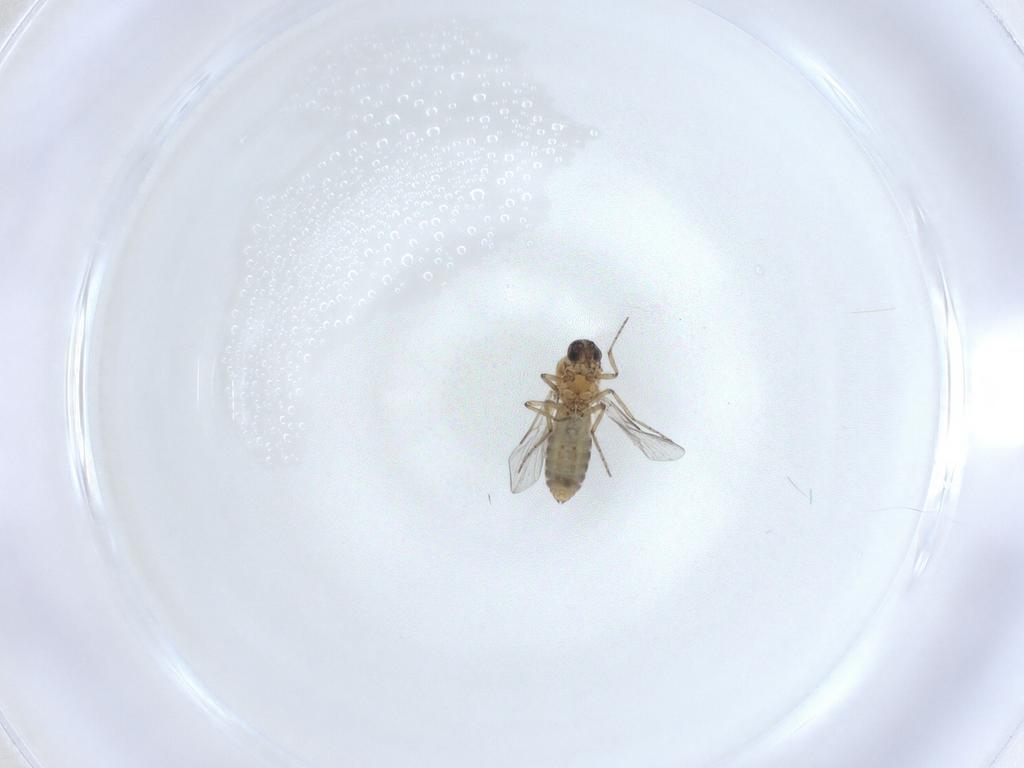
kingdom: Animalia
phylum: Arthropoda
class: Insecta
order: Diptera
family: Ceratopogonidae
